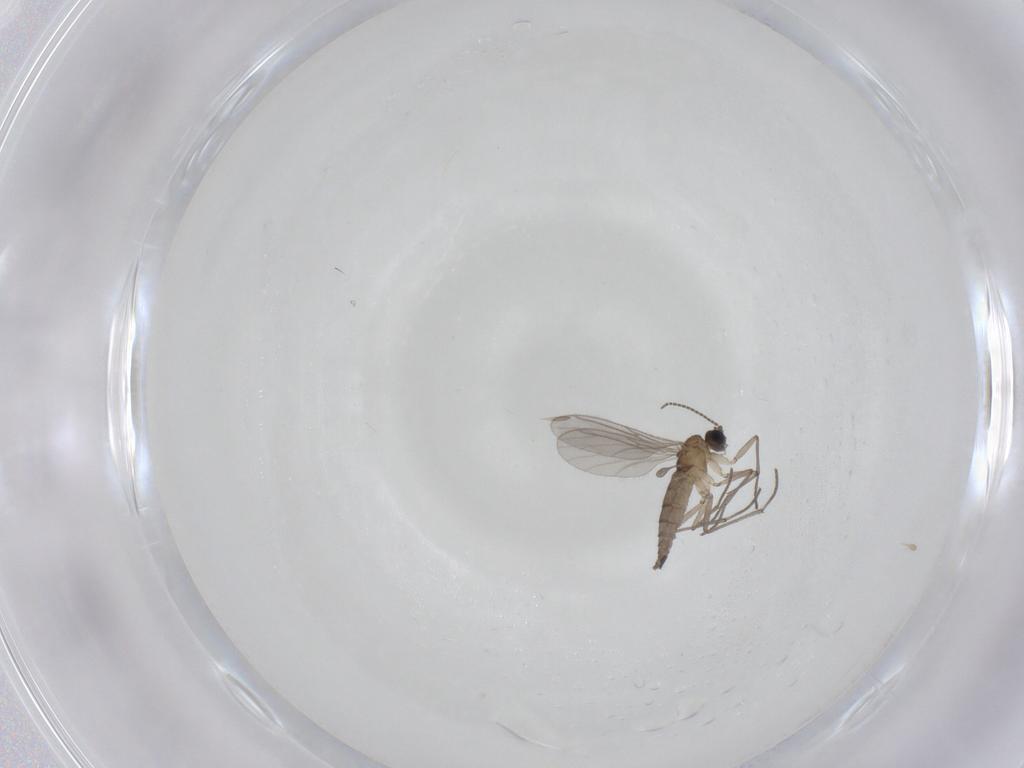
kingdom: Animalia
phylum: Arthropoda
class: Insecta
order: Diptera
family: Sciaridae
